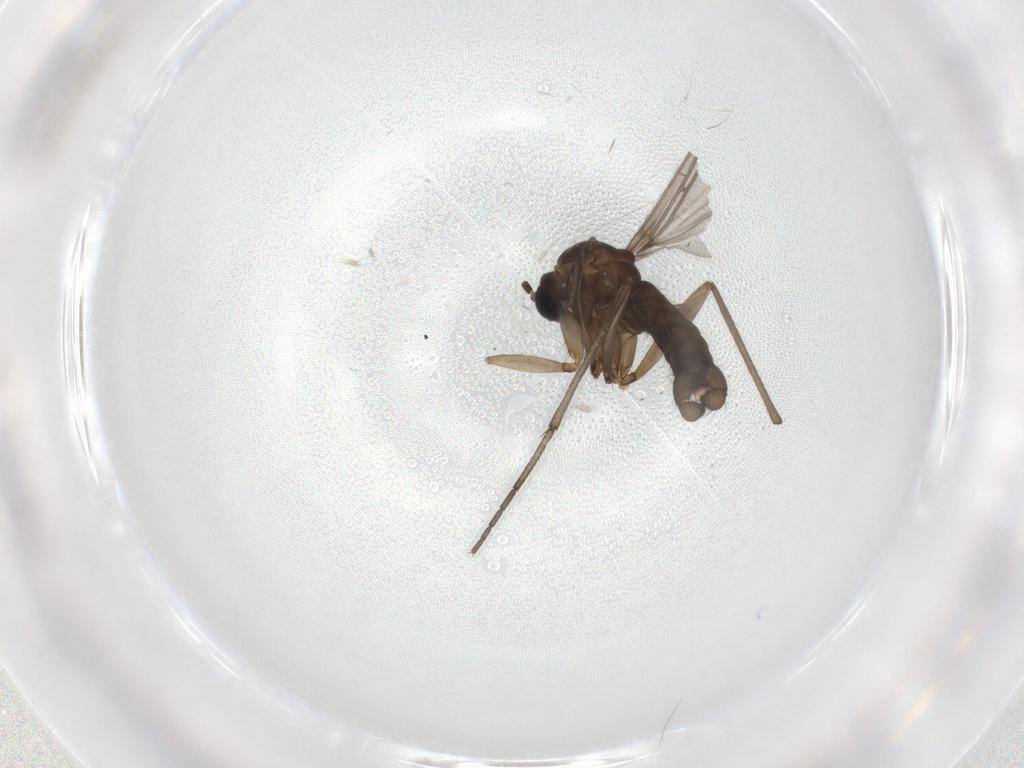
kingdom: Animalia
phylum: Arthropoda
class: Insecta
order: Diptera
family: Sciaridae
